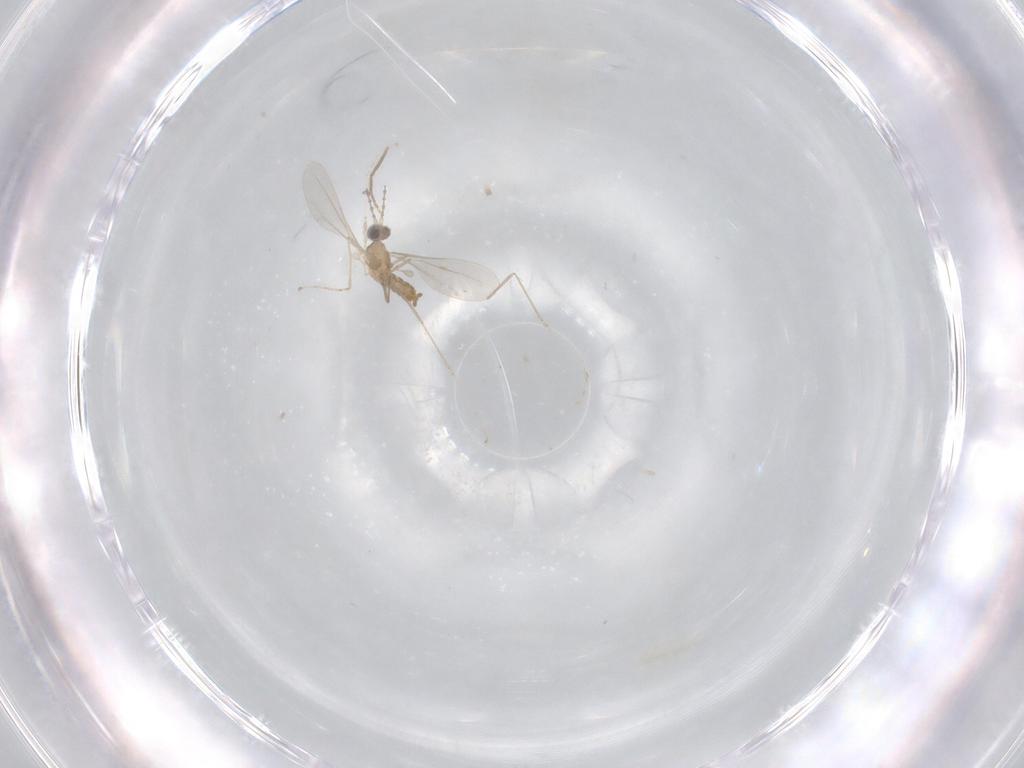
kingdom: Animalia
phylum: Arthropoda
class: Insecta
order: Diptera
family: Cecidomyiidae
